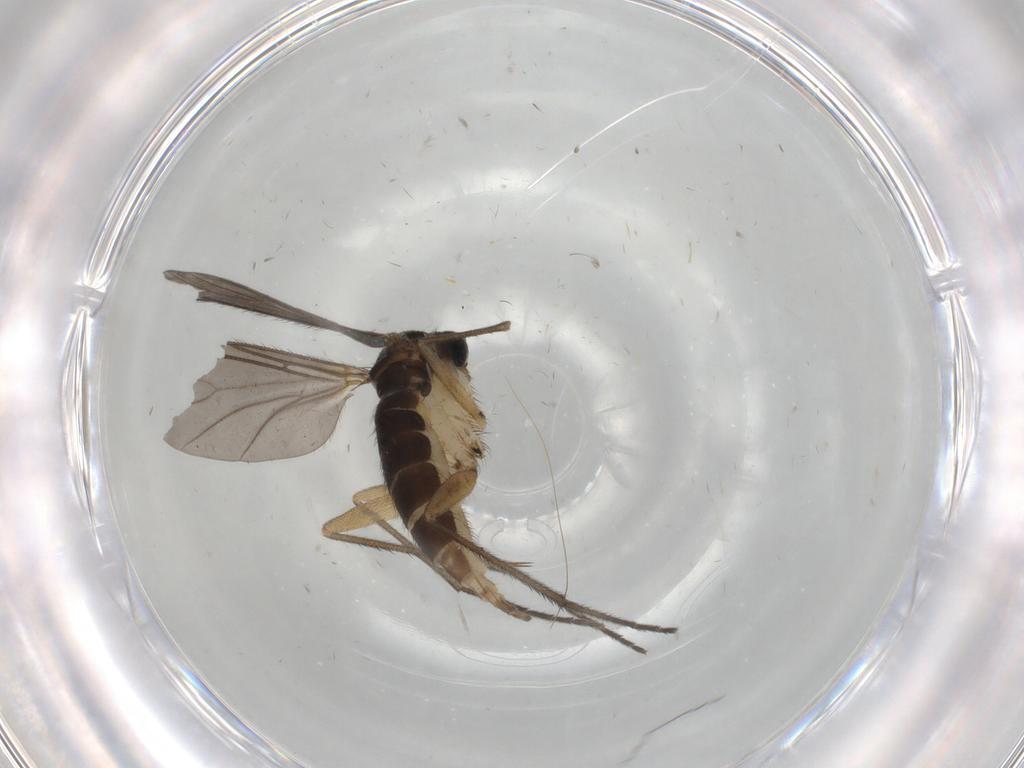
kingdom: Animalia
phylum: Arthropoda
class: Insecta
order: Diptera
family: Sciaridae
